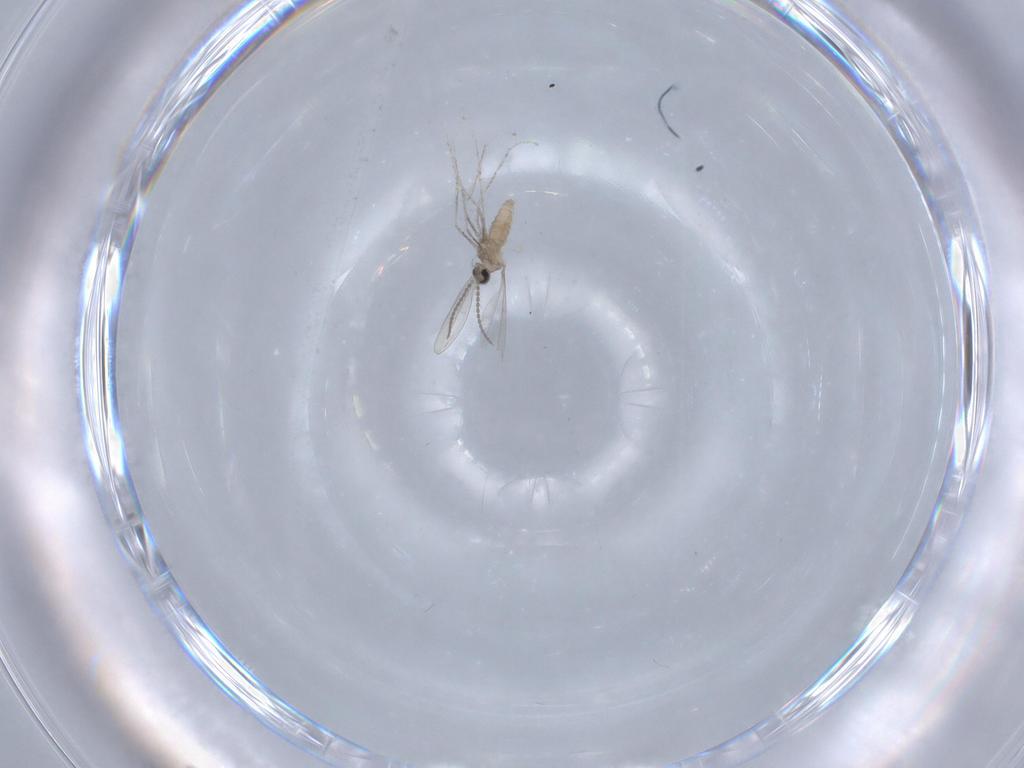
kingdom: Animalia
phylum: Arthropoda
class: Insecta
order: Diptera
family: Cecidomyiidae
